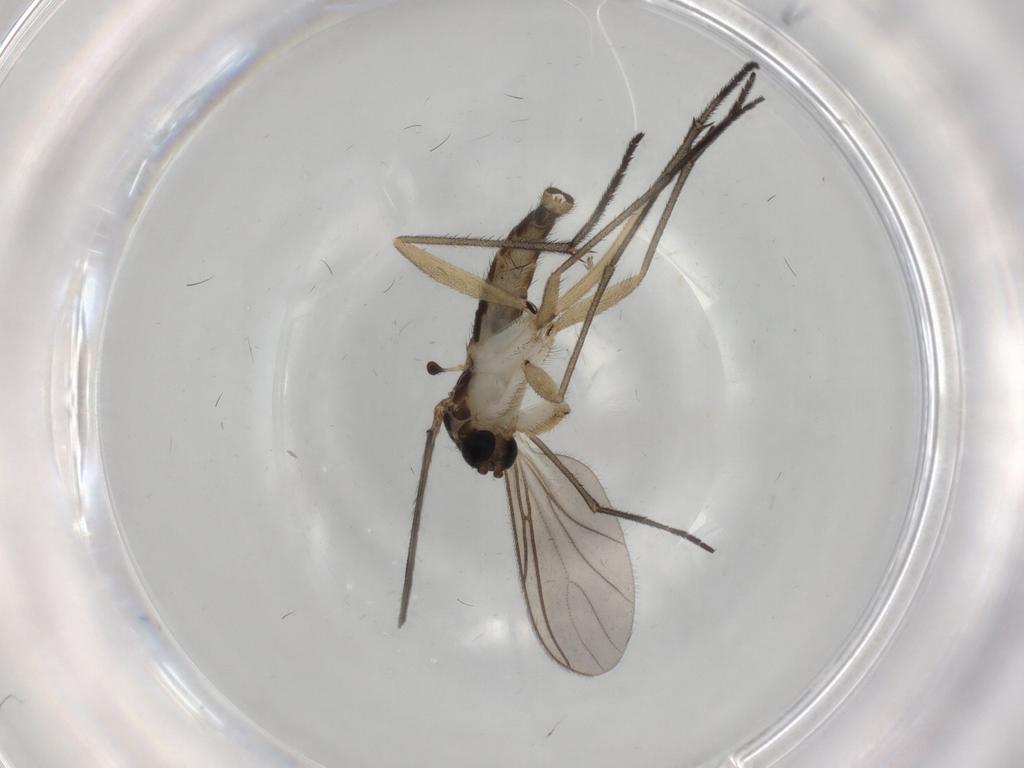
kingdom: Animalia
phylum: Arthropoda
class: Insecta
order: Diptera
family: Sciaridae
